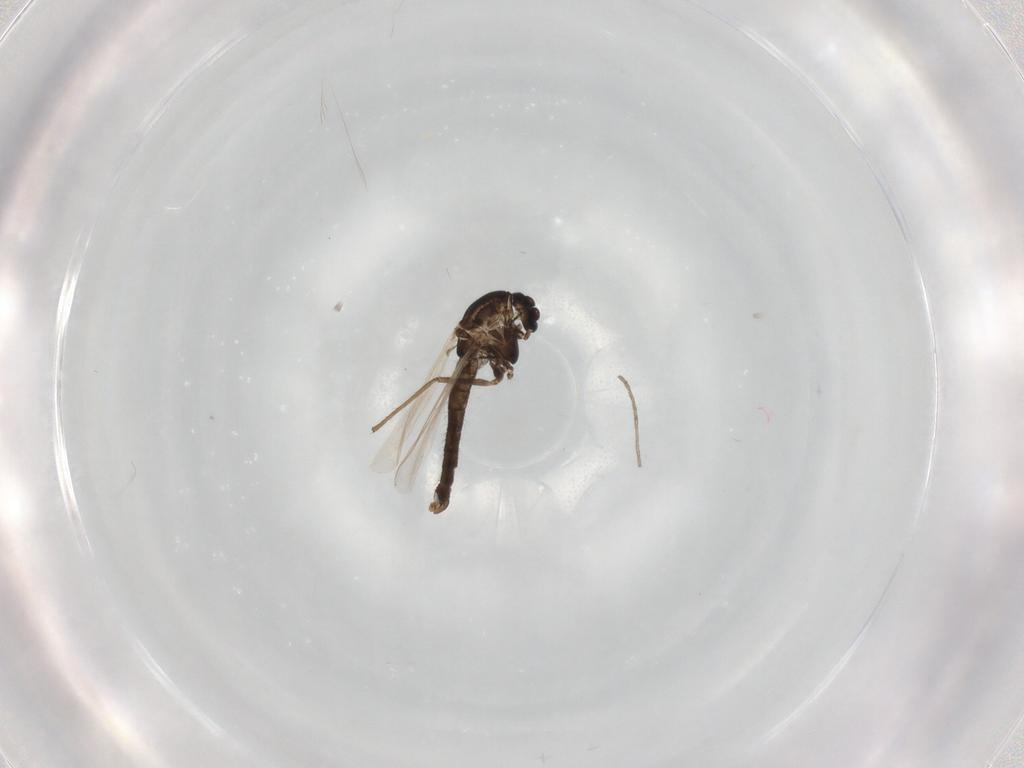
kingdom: Animalia
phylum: Arthropoda
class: Insecta
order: Diptera
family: Chironomidae
